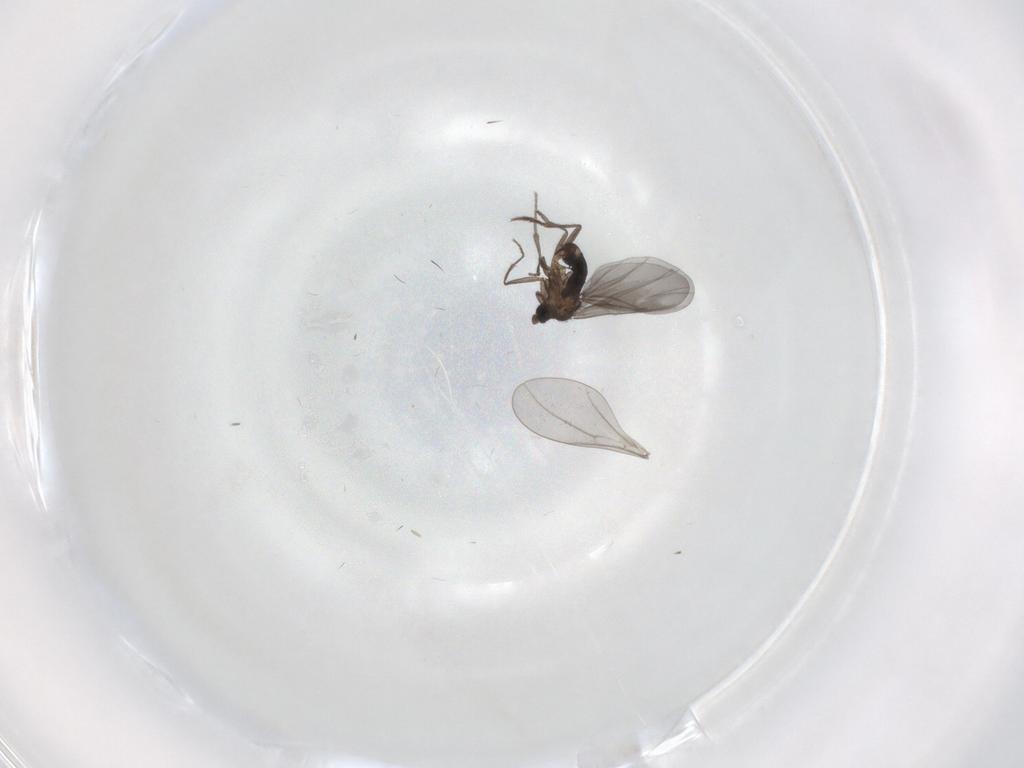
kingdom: Animalia
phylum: Arthropoda
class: Insecta
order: Diptera
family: Phoridae
